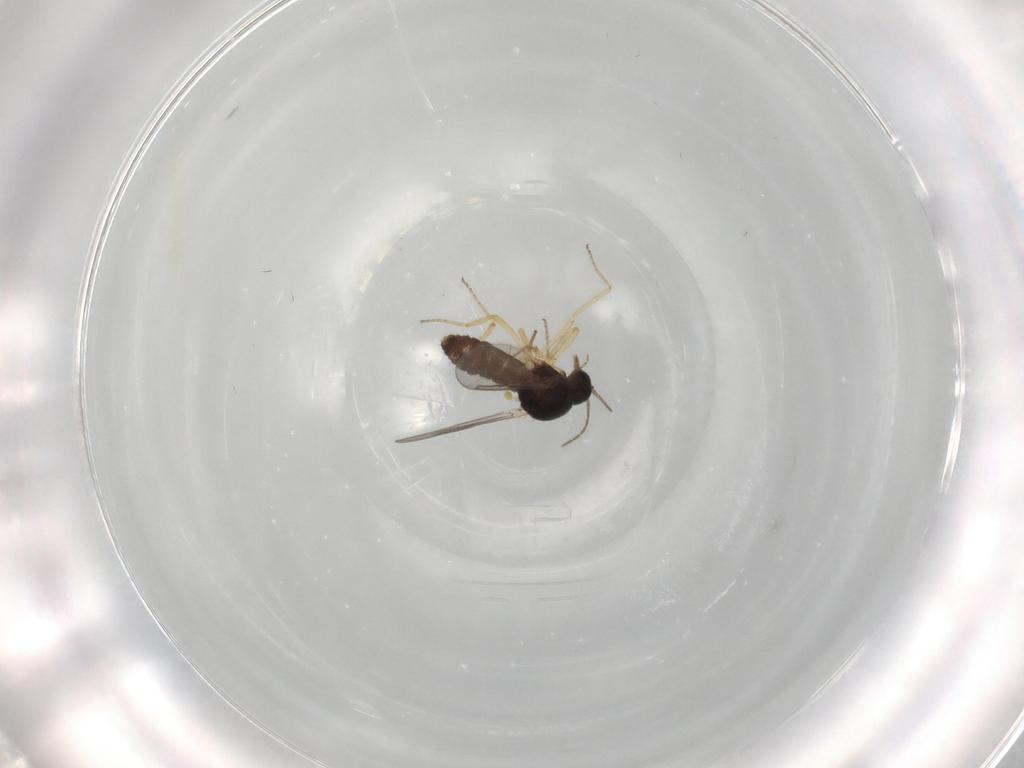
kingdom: Animalia
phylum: Arthropoda
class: Insecta
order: Diptera
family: Ceratopogonidae
